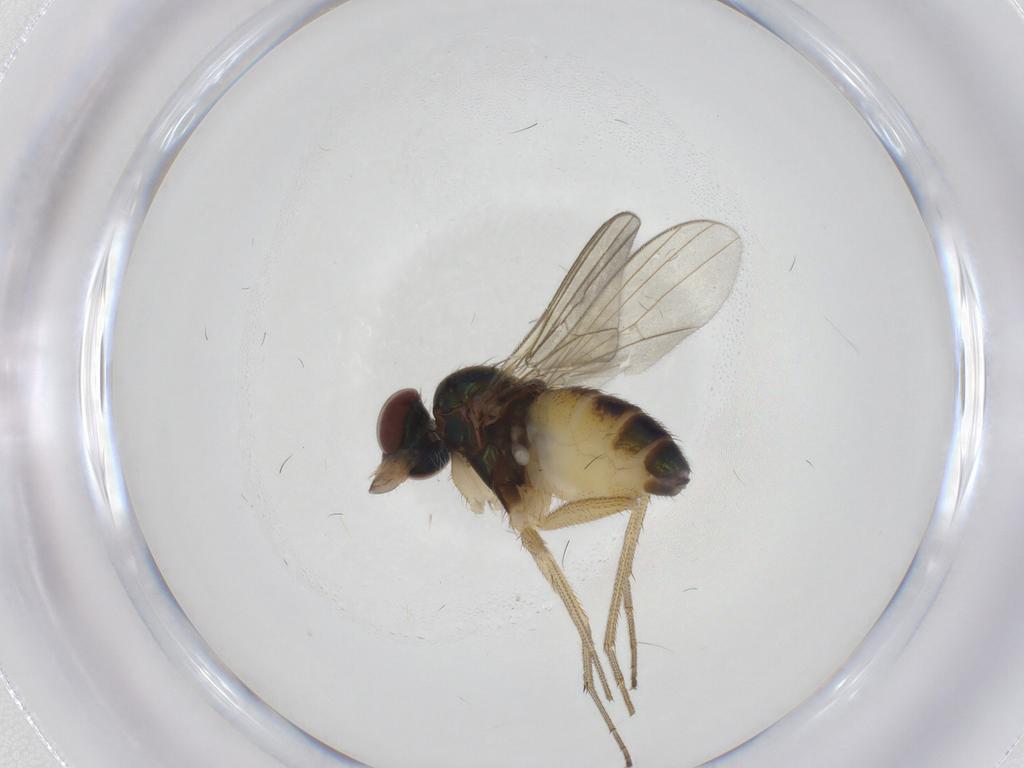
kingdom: Animalia
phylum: Arthropoda
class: Insecta
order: Diptera
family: Dolichopodidae
